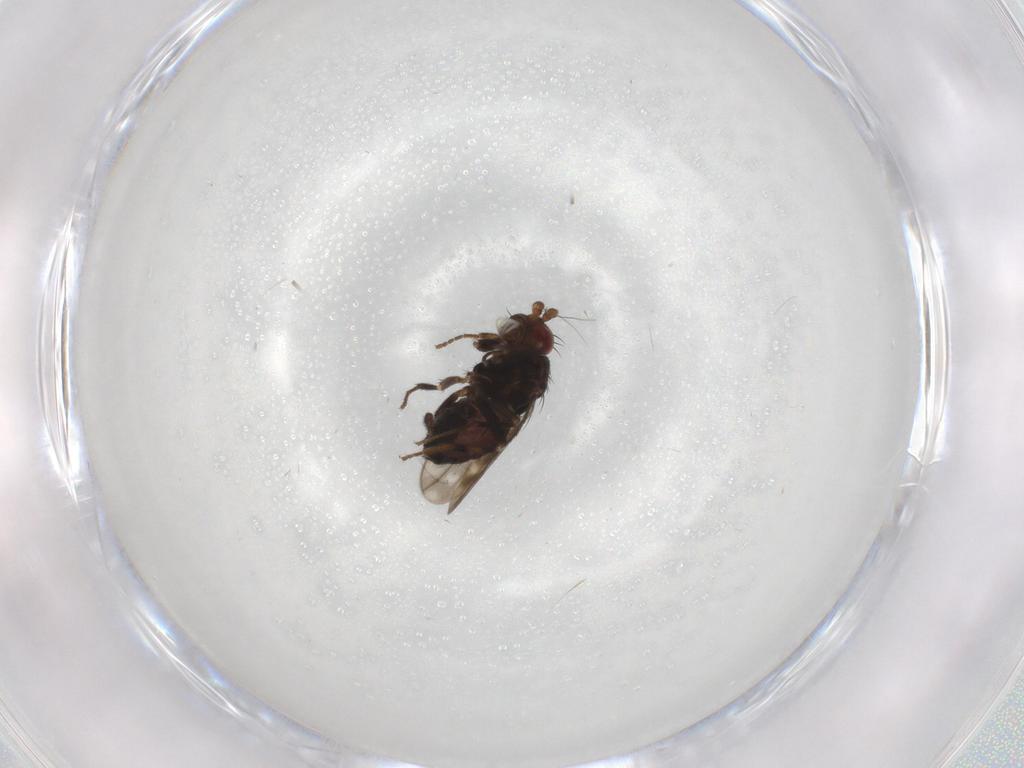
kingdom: Animalia
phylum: Arthropoda
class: Insecta
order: Diptera
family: Sphaeroceridae
